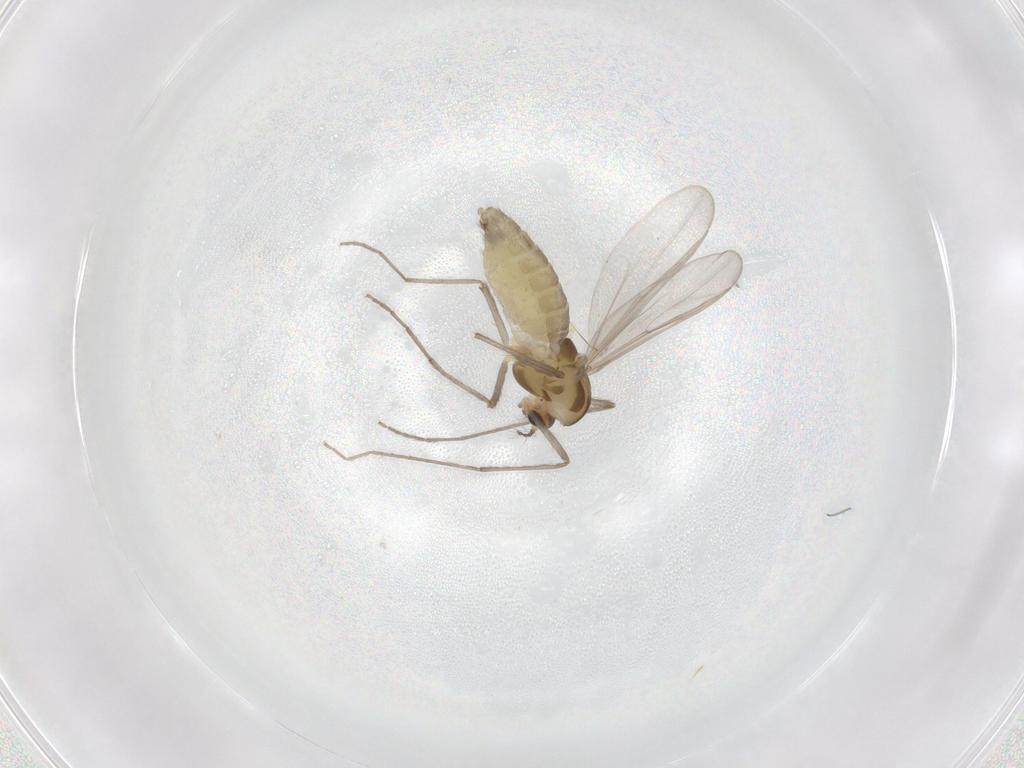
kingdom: Animalia
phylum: Arthropoda
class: Insecta
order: Diptera
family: Chironomidae
